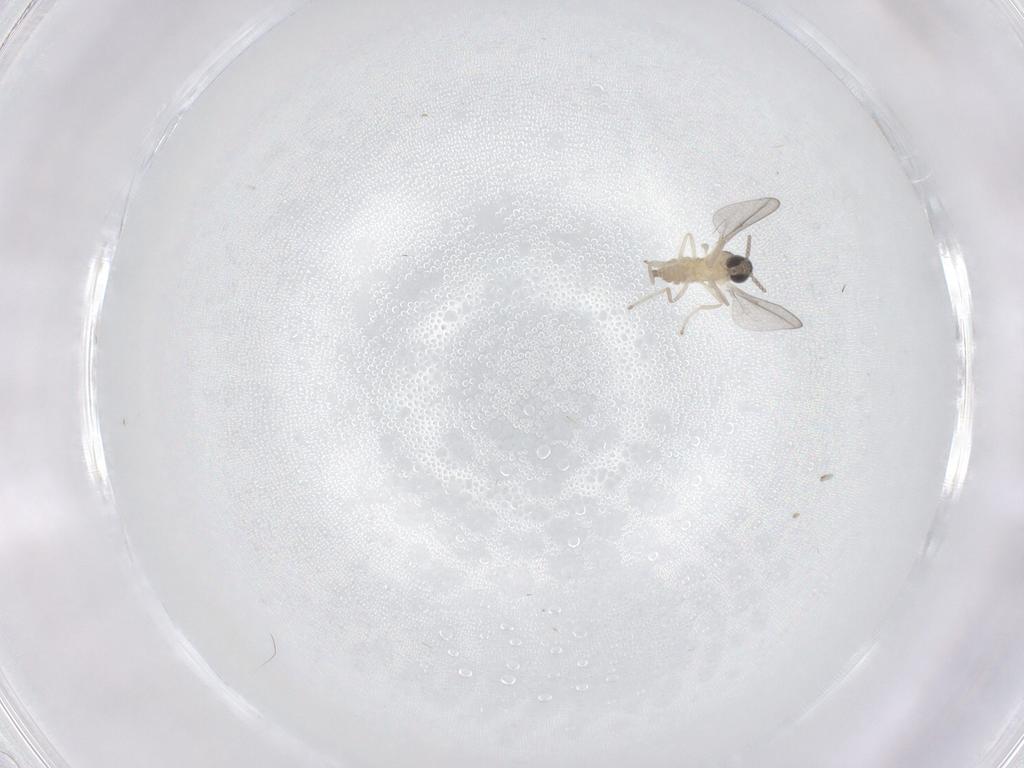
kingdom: Animalia
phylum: Arthropoda
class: Insecta
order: Diptera
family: Cecidomyiidae
